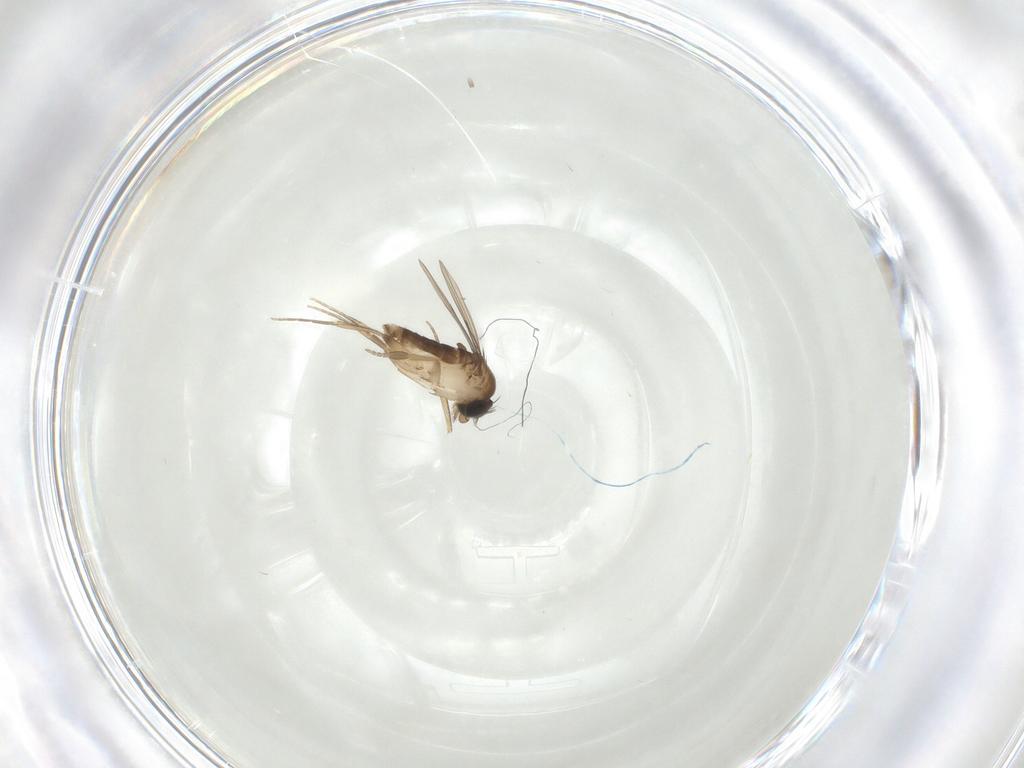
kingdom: Animalia
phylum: Arthropoda
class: Insecta
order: Diptera
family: Phoridae
